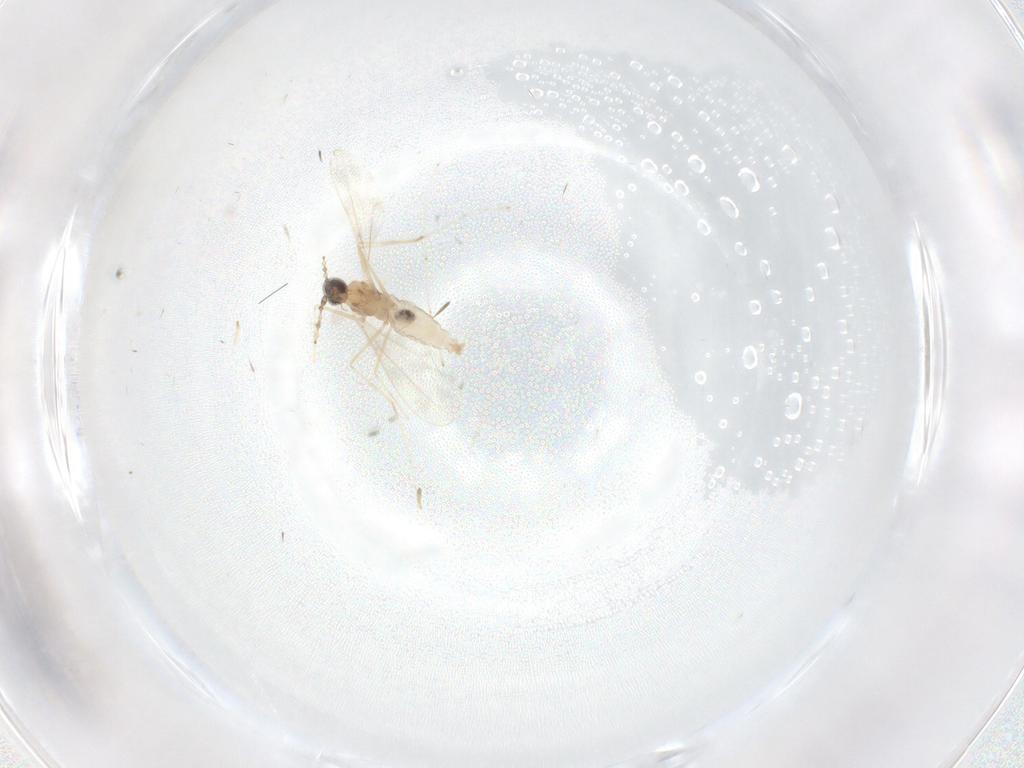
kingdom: Animalia
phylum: Arthropoda
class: Insecta
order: Diptera
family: Cecidomyiidae
